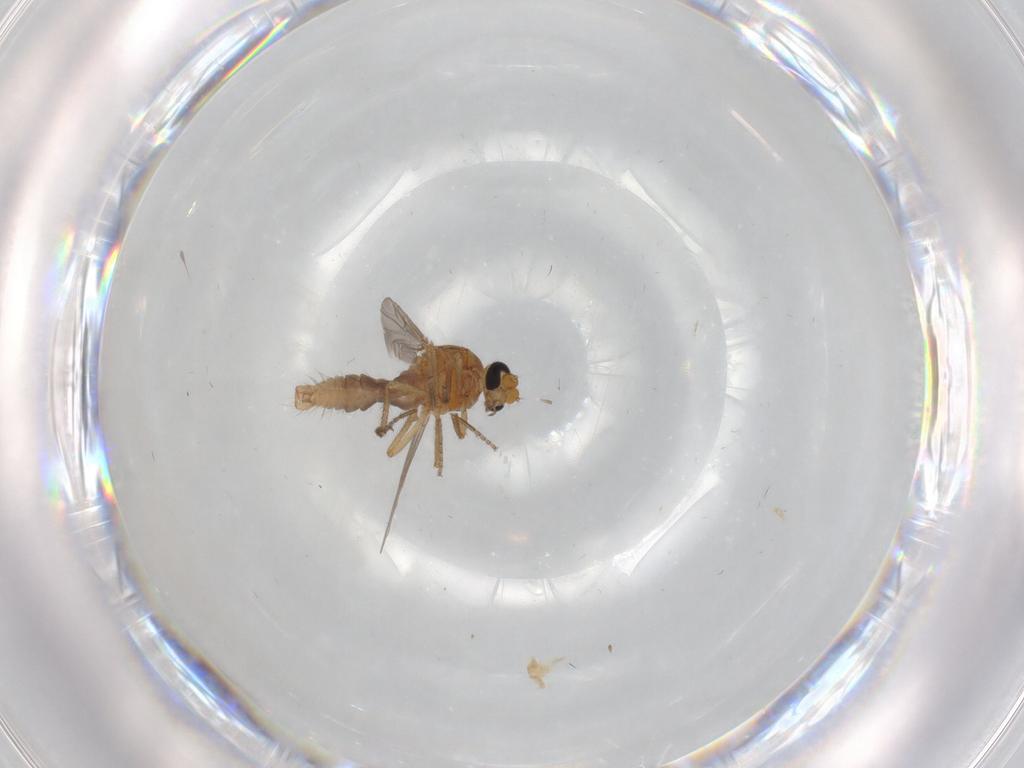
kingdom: Animalia
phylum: Arthropoda
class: Insecta
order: Diptera
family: Ceratopogonidae
